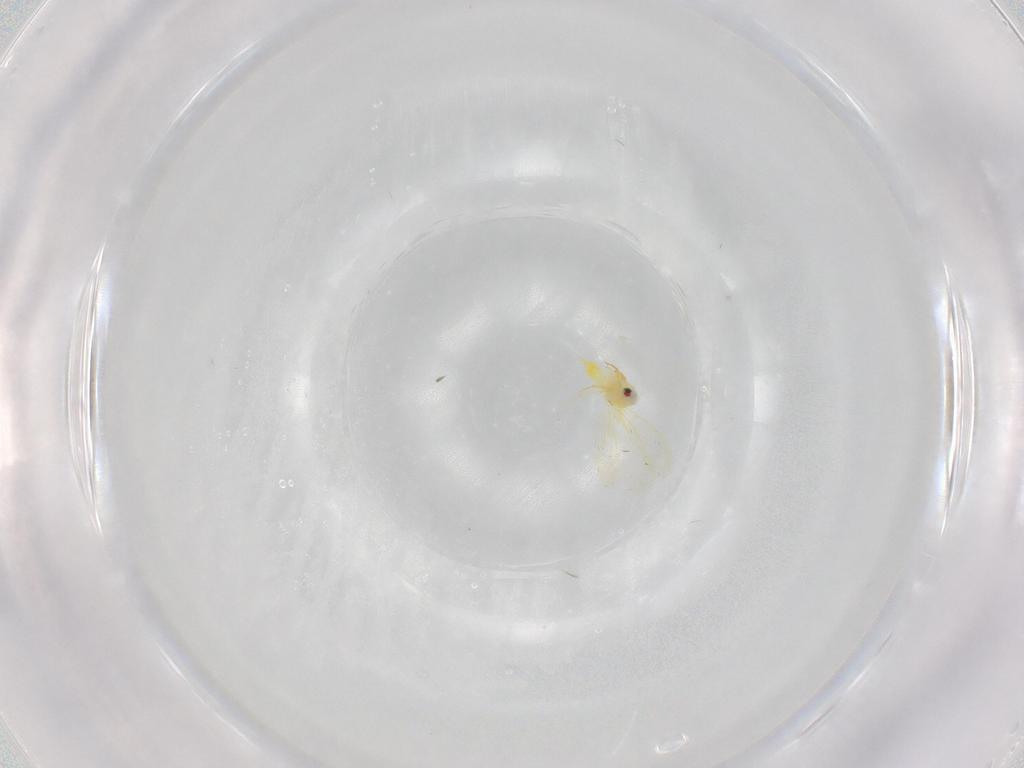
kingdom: Animalia
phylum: Arthropoda
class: Insecta
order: Hemiptera
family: Aleyrodidae
